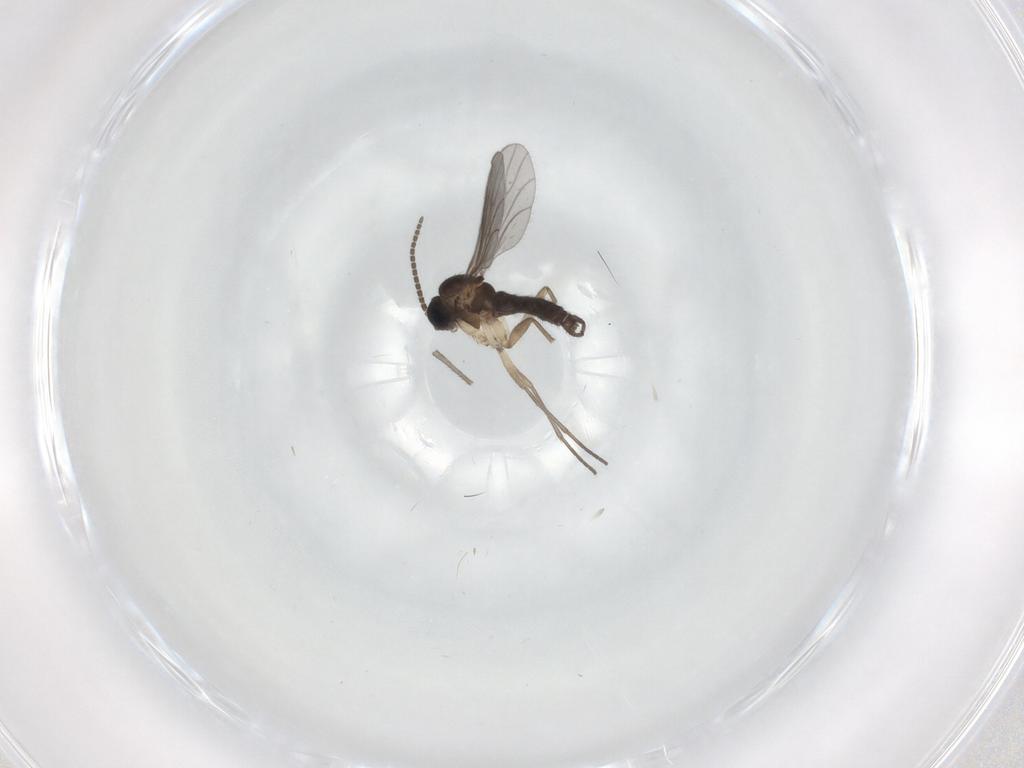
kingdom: Animalia
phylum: Arthropoda
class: Insecta
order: Diptera
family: Sciaridae
